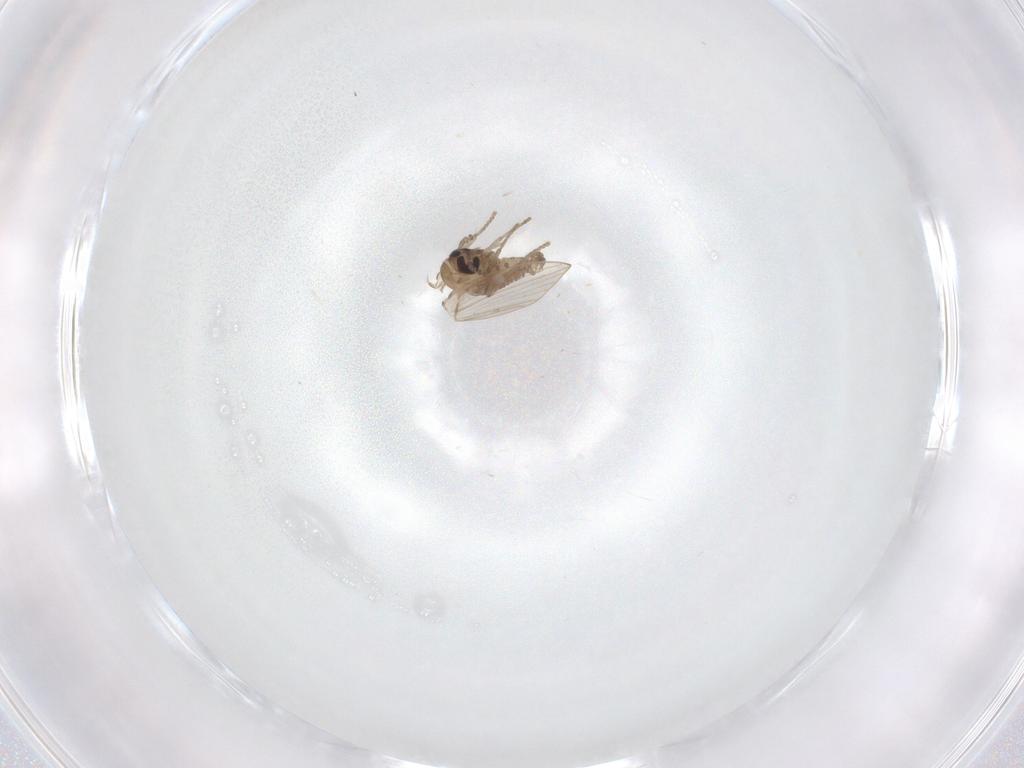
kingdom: Animalia
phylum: Arthropoda
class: Insecta
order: Diptera
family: Psychodidae
